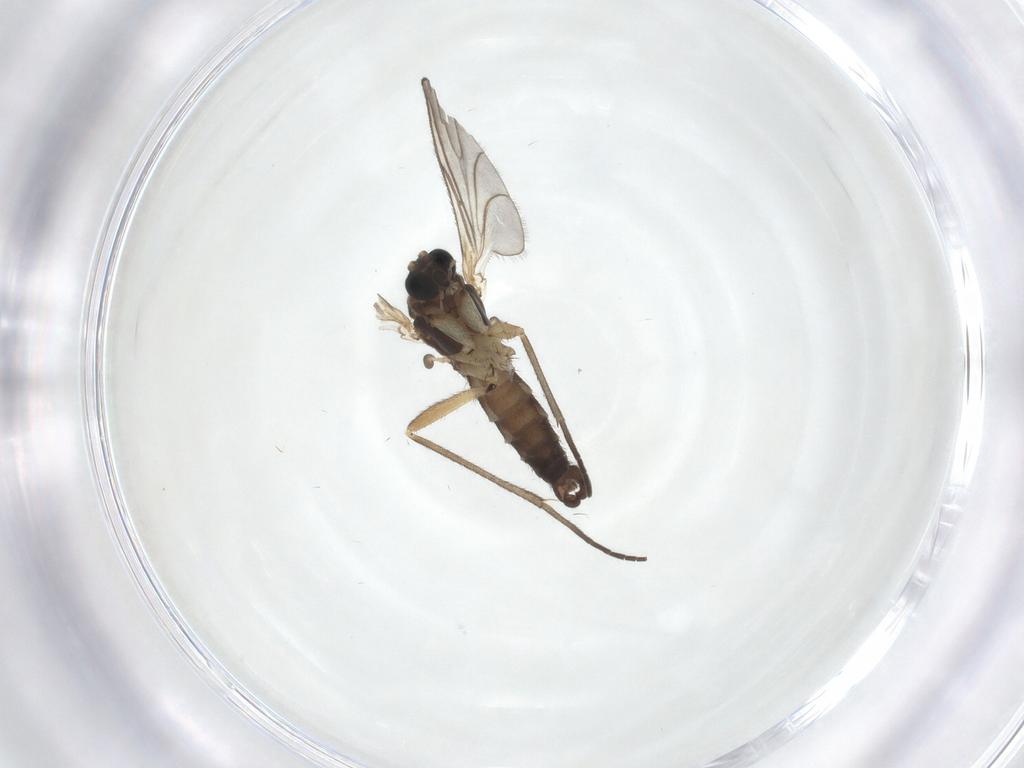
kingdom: Animalia
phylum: Arthropoda
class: Insecta
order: Diptera
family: Sciaridae
